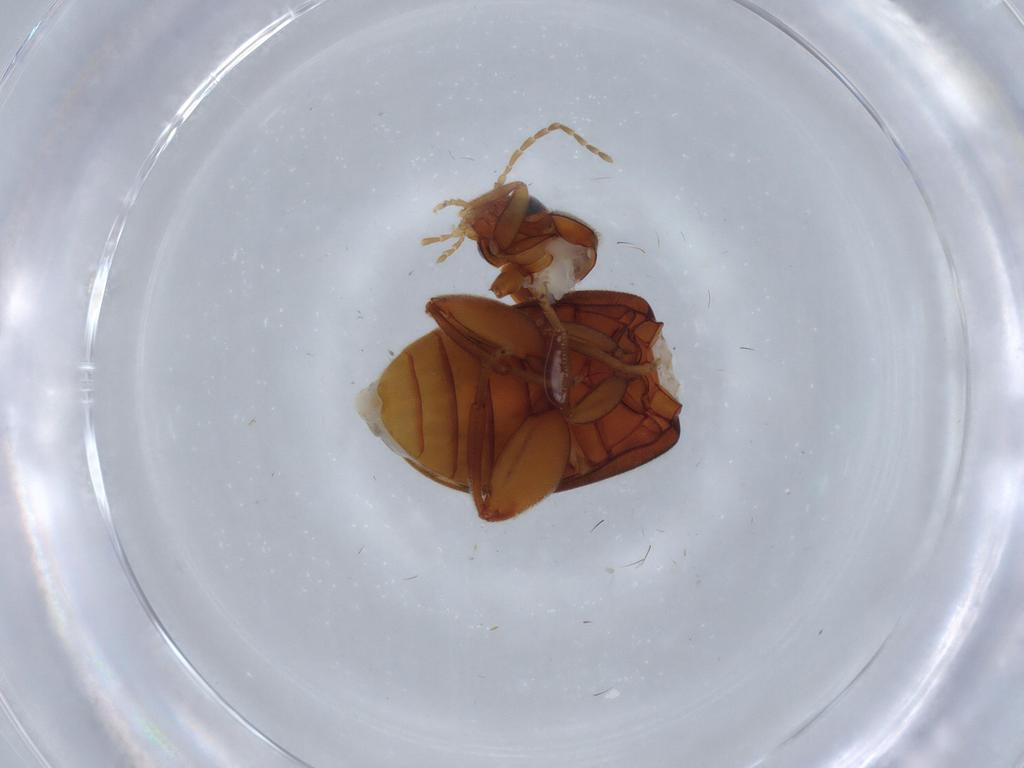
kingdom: Animalia
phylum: Arthropoda
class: Insecta
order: Coleoptera
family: Scirtidae
